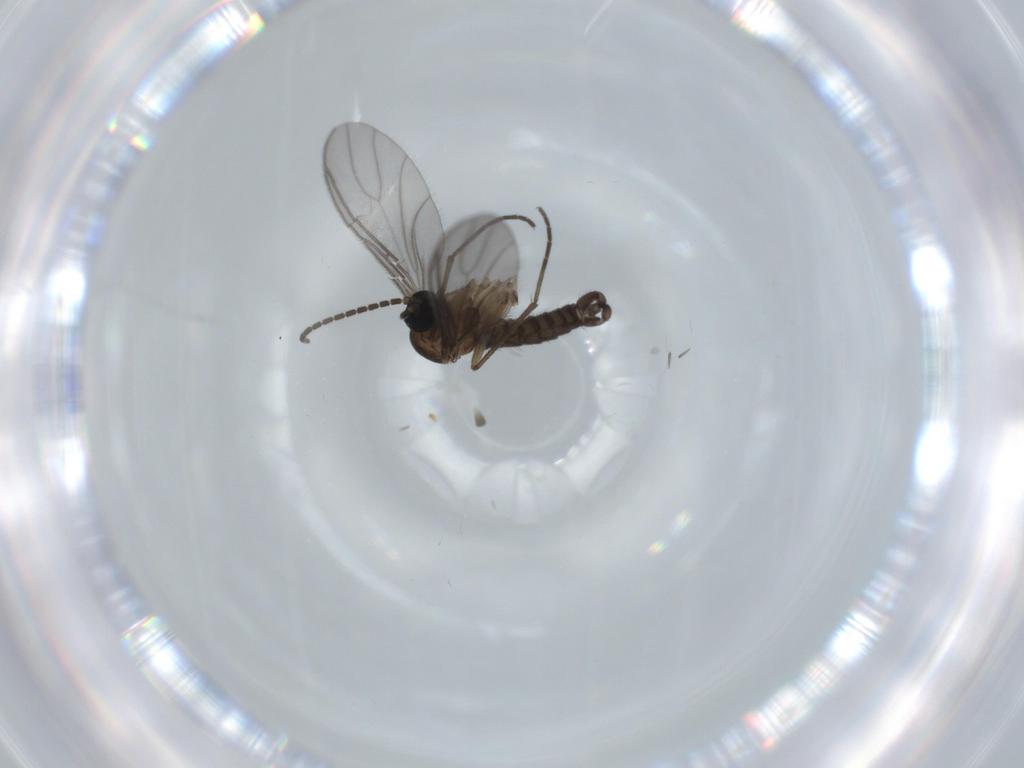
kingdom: Animalia
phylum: Arthropoda
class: Insecta
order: Diptera
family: Sciaridae
